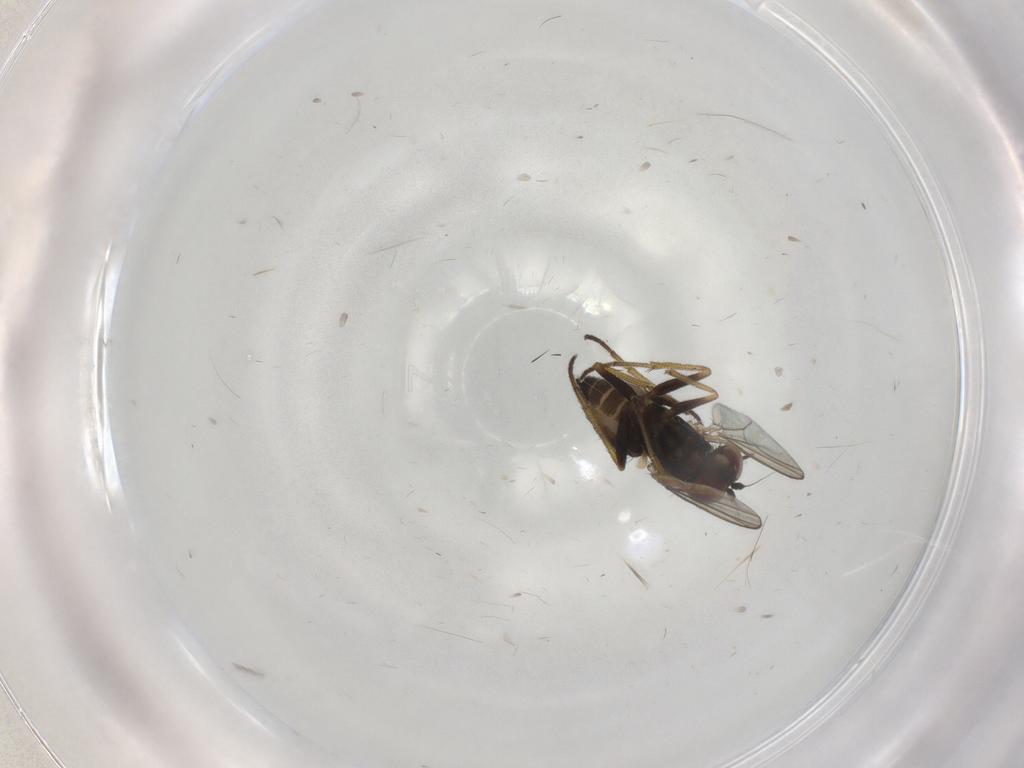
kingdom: Animalia
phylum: Arthropoda
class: Insecta
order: Diptera
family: Dolichopodidae
